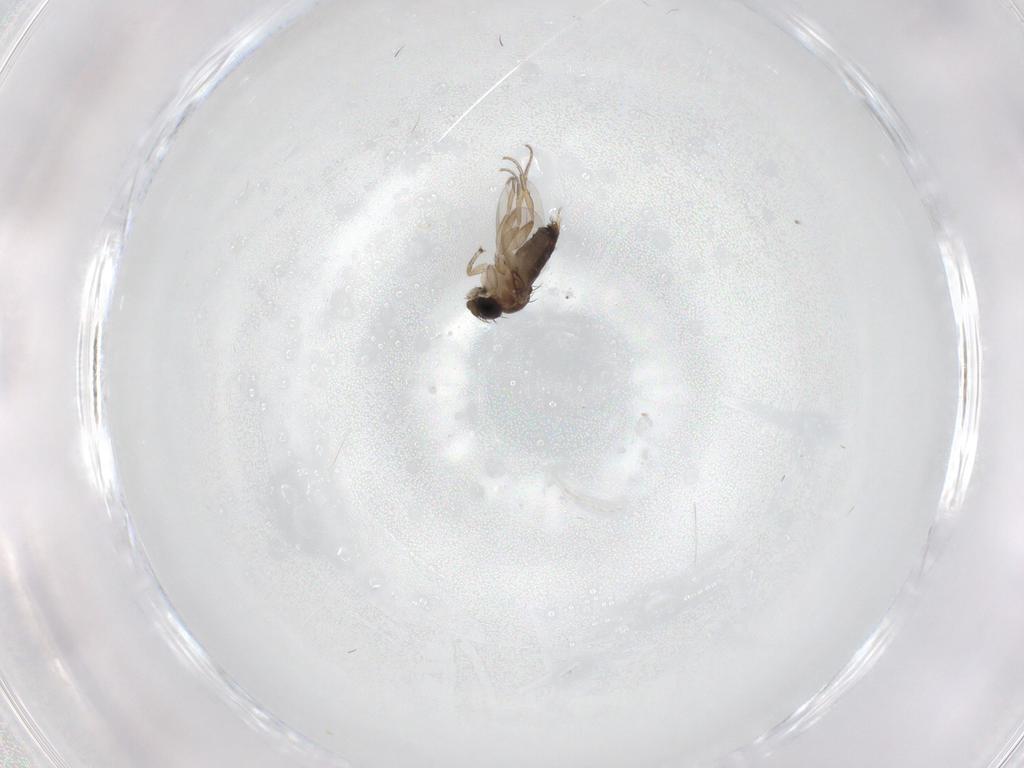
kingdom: Animalia
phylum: Arthropoda
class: Insecta
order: Diptera
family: Phoridae
